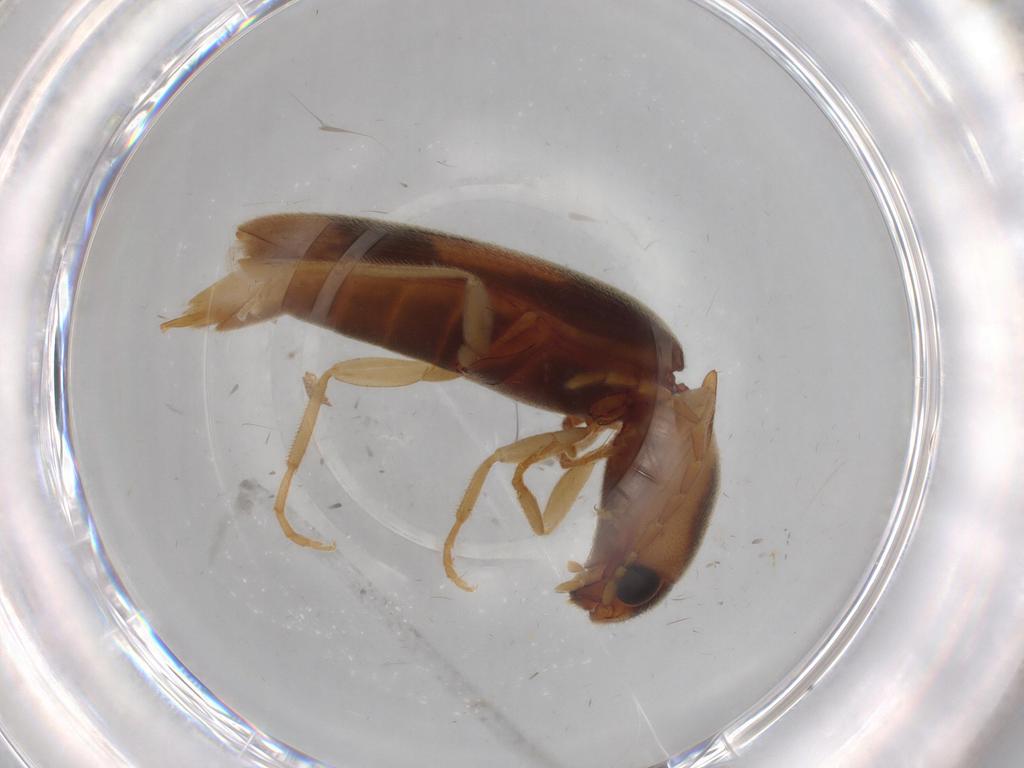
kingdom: Animalia
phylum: Arthropoda
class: Insecta
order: Coleoptera
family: Elateridae
